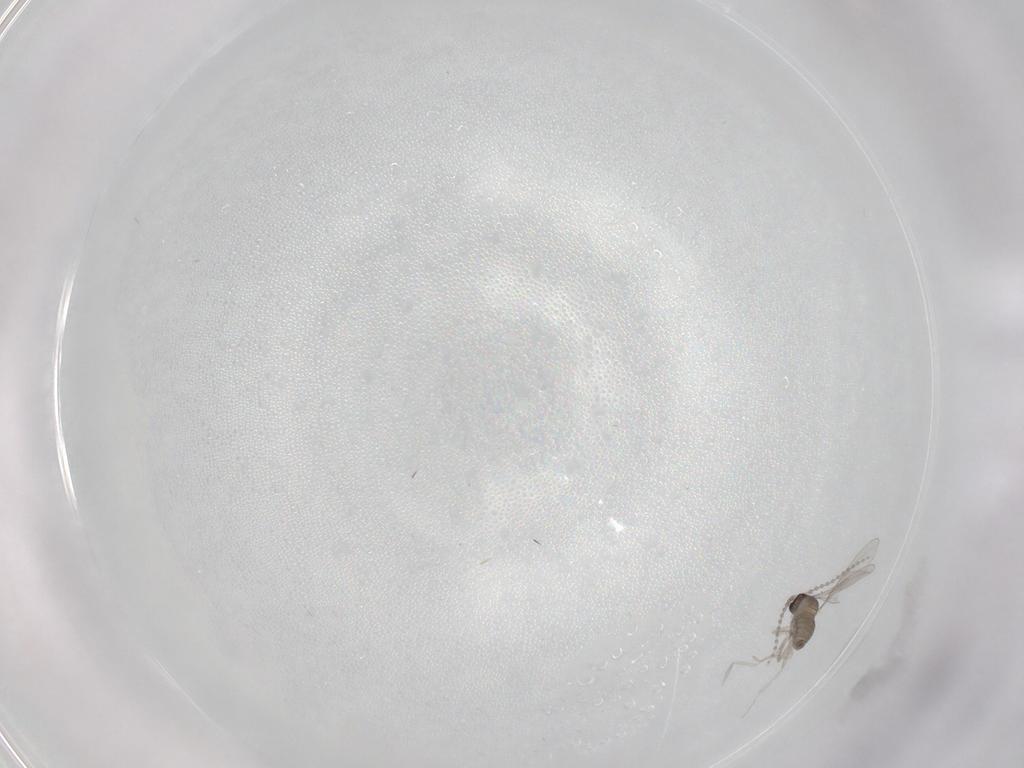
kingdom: Animalia
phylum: Arthropoda
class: Insecta
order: Diptera
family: Cecidomyiidae
